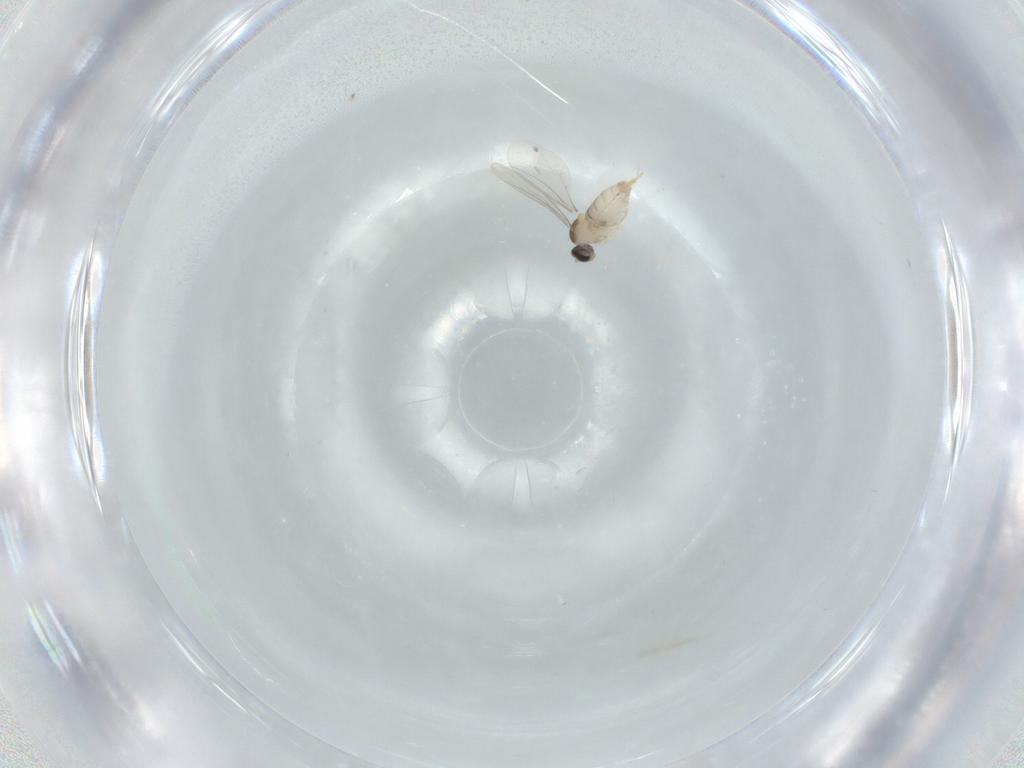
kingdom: Animalia
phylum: Arthropoda
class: Insecta
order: Diptera
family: Cecidomyiidae
